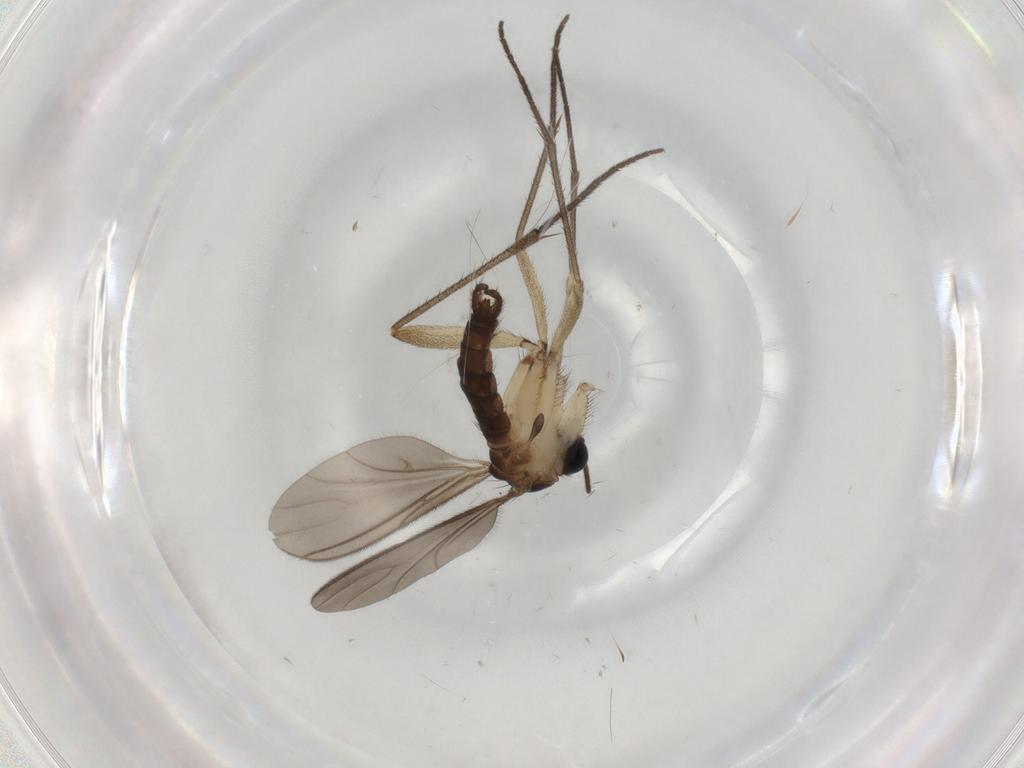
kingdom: Animalia
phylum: Arthropoda
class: Insecta
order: Diptera
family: Sciaridae
